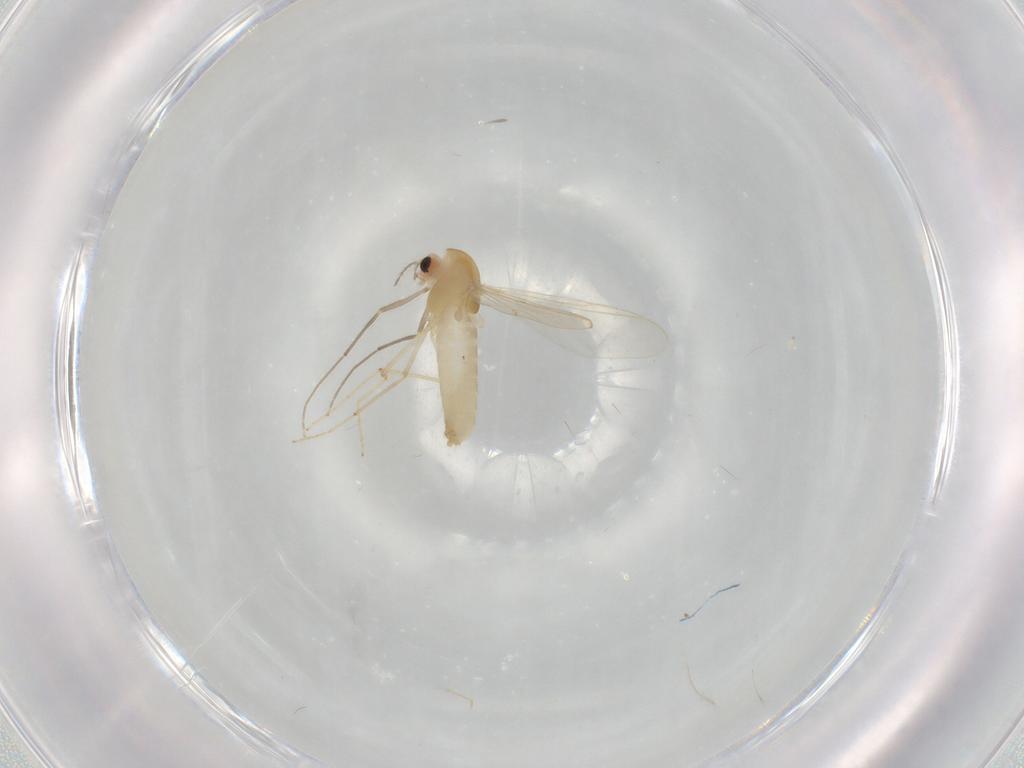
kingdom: Animalia
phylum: Arthropoda
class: Insecta
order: Diptera
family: Chironomidae
